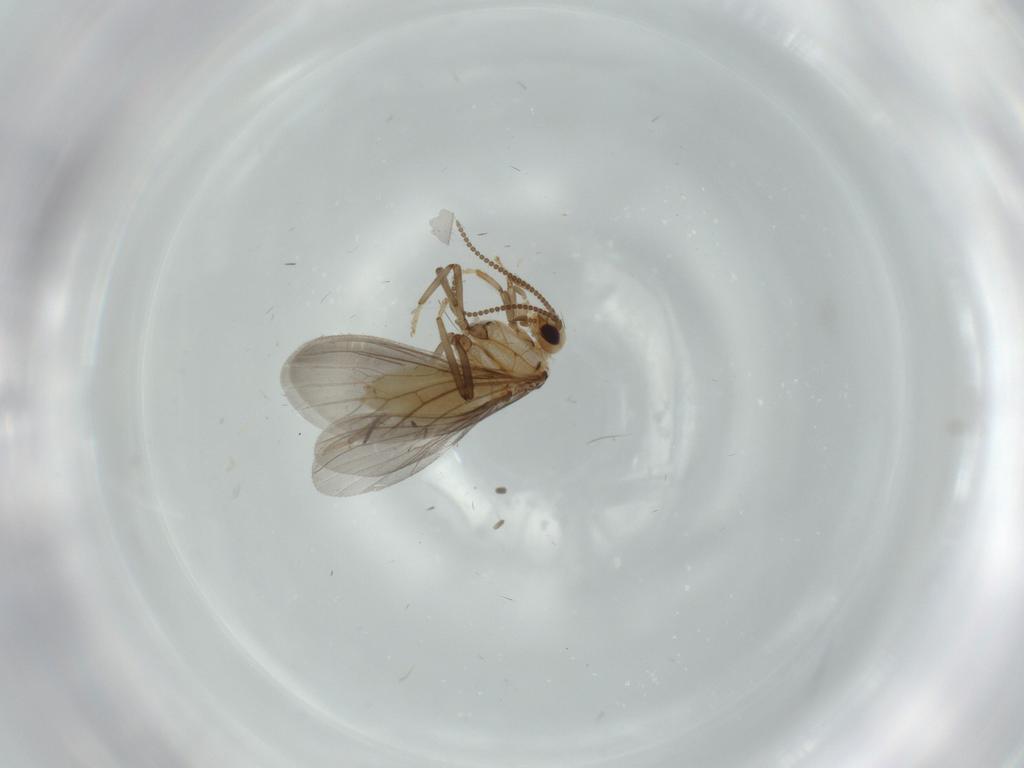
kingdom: Animalia
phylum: Arthropoda
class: Insecta
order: Neuroptera
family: Coniopterygidae
